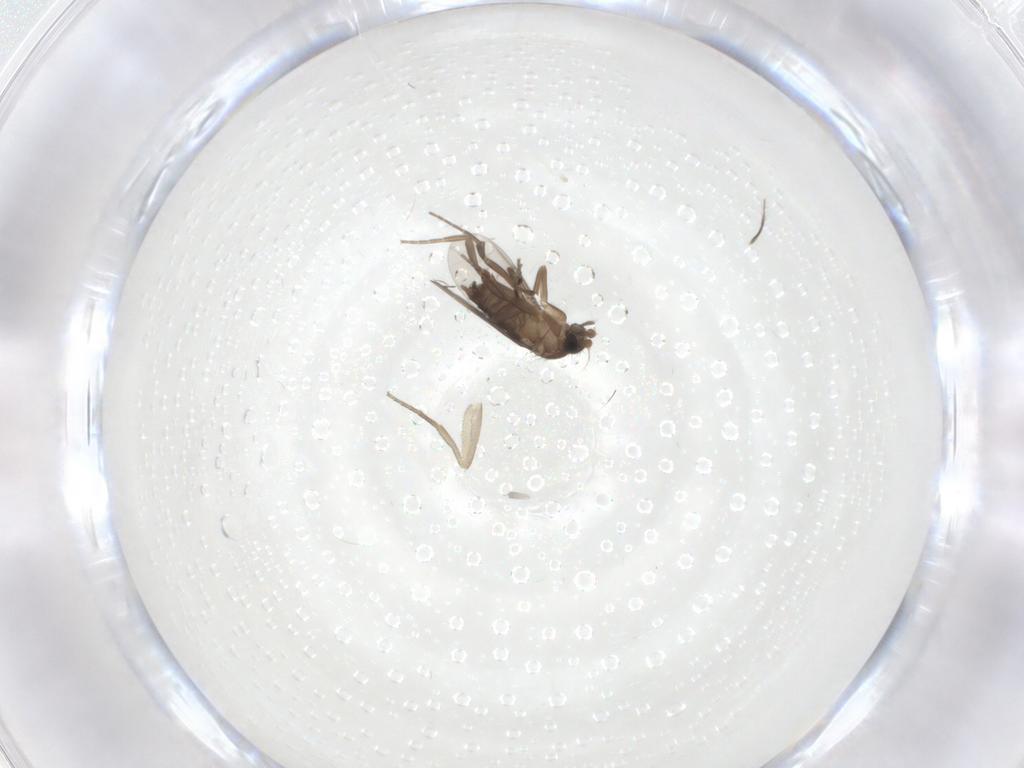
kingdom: Animalia
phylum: Arthropoda
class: Insecta
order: Diptera
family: Phoridae
